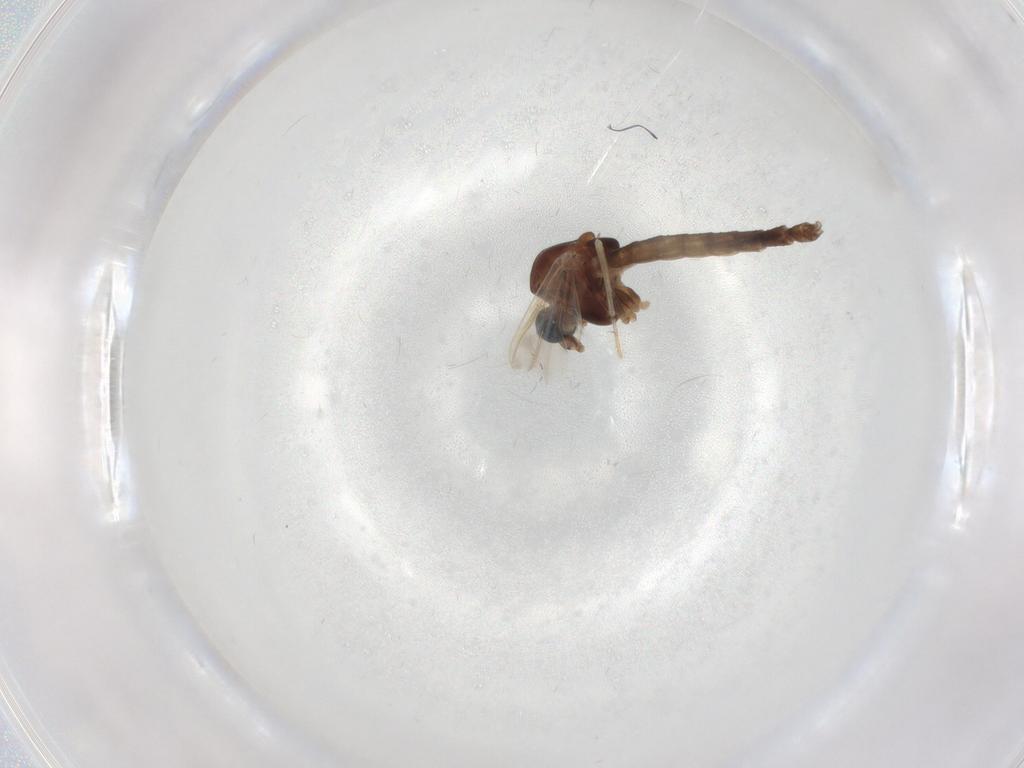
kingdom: Animalia
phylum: Arthropoda
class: Insecta
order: Diptera
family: Chironomidae
